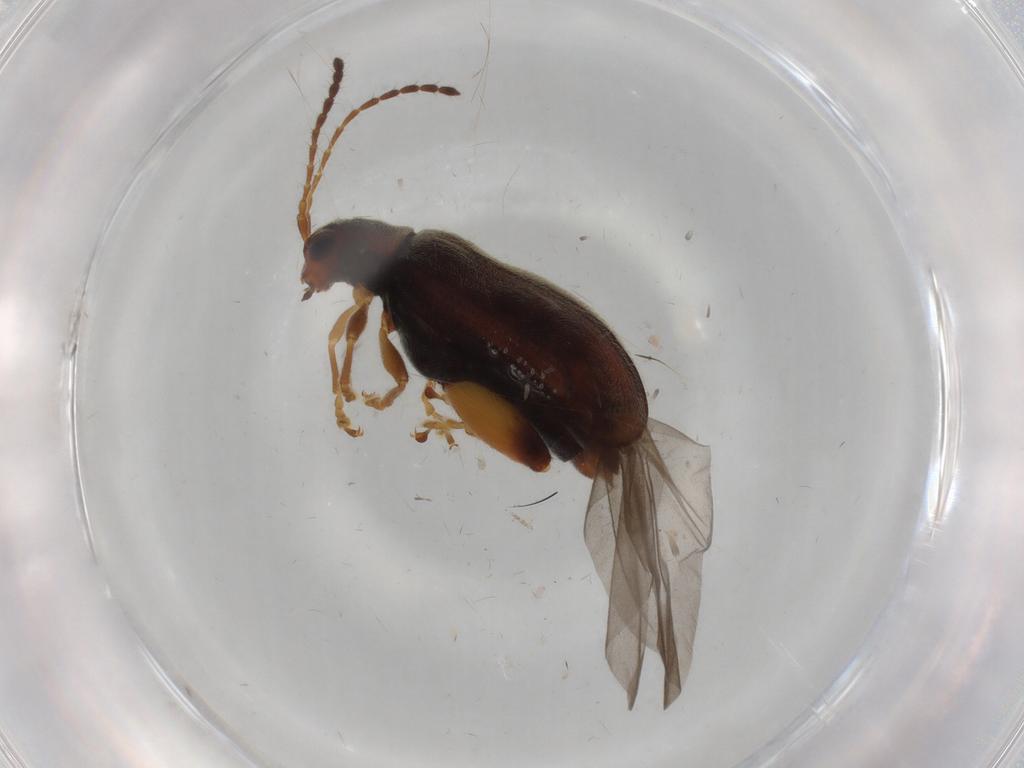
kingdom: Animalia
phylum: Arthropoda
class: Insecta
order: Coleoptera
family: Chrysomelidae
